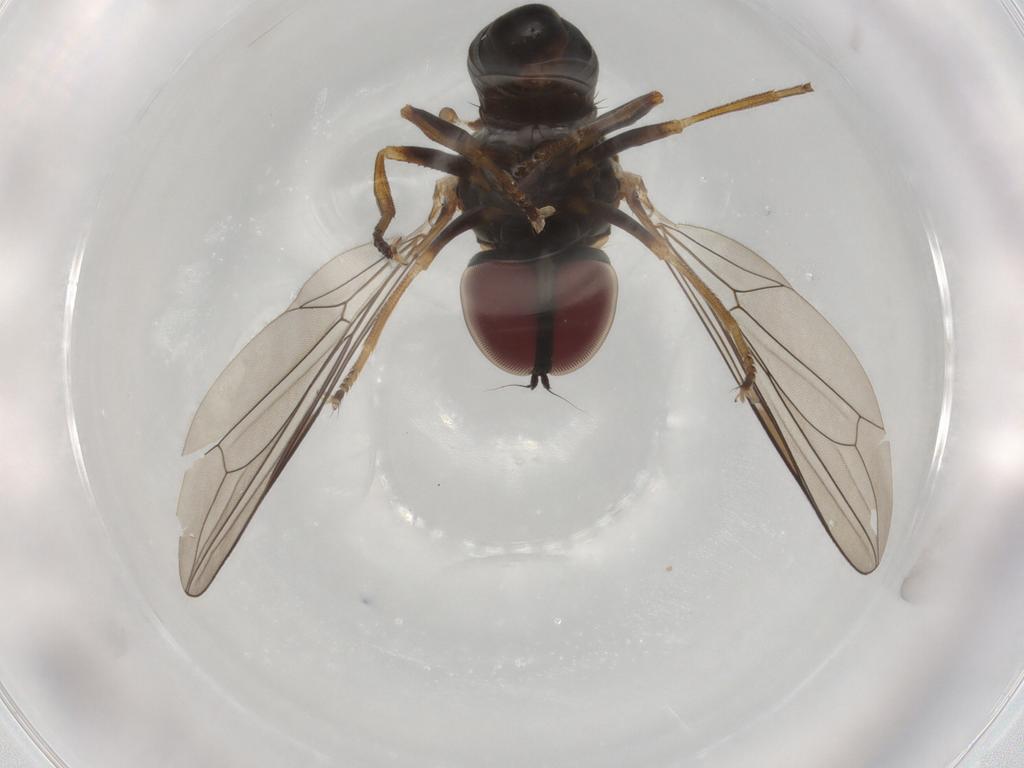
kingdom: Animalia
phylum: Arthropoda
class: Insecta
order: Diptera
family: Pipunculidae
